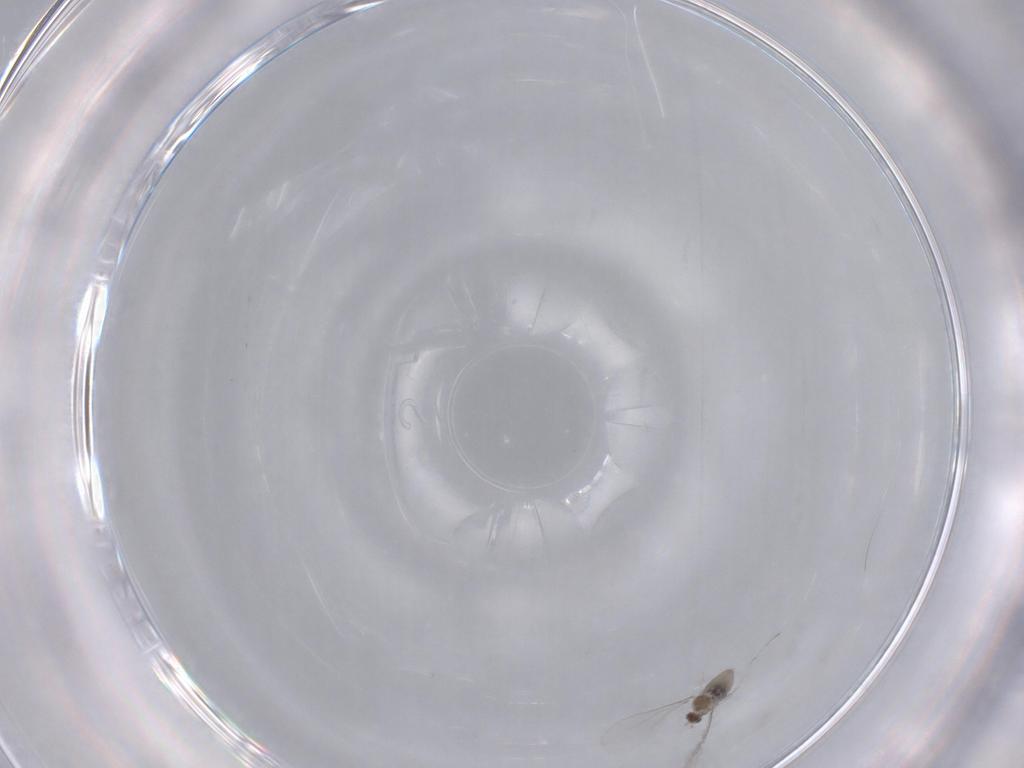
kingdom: Animalia
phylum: Arthropoda
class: Insecta
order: Diptera
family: Cecidomyiidae
